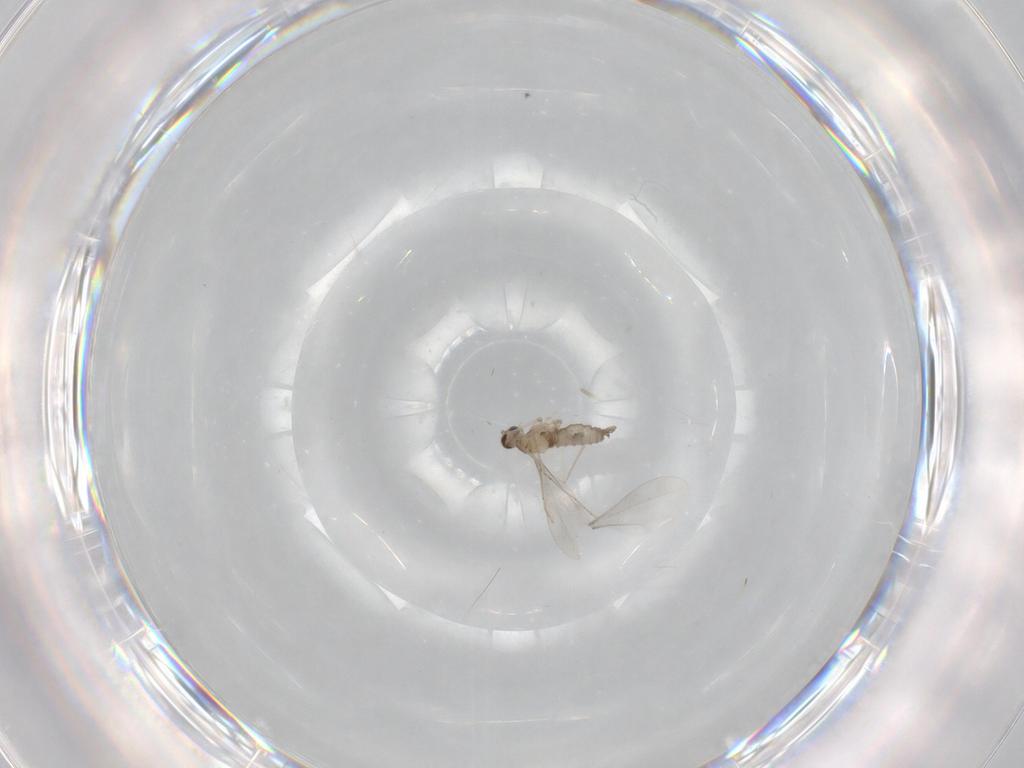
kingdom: Animalia
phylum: Arthropoda
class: Insecta
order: Diptera
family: Cecidomyiidae
